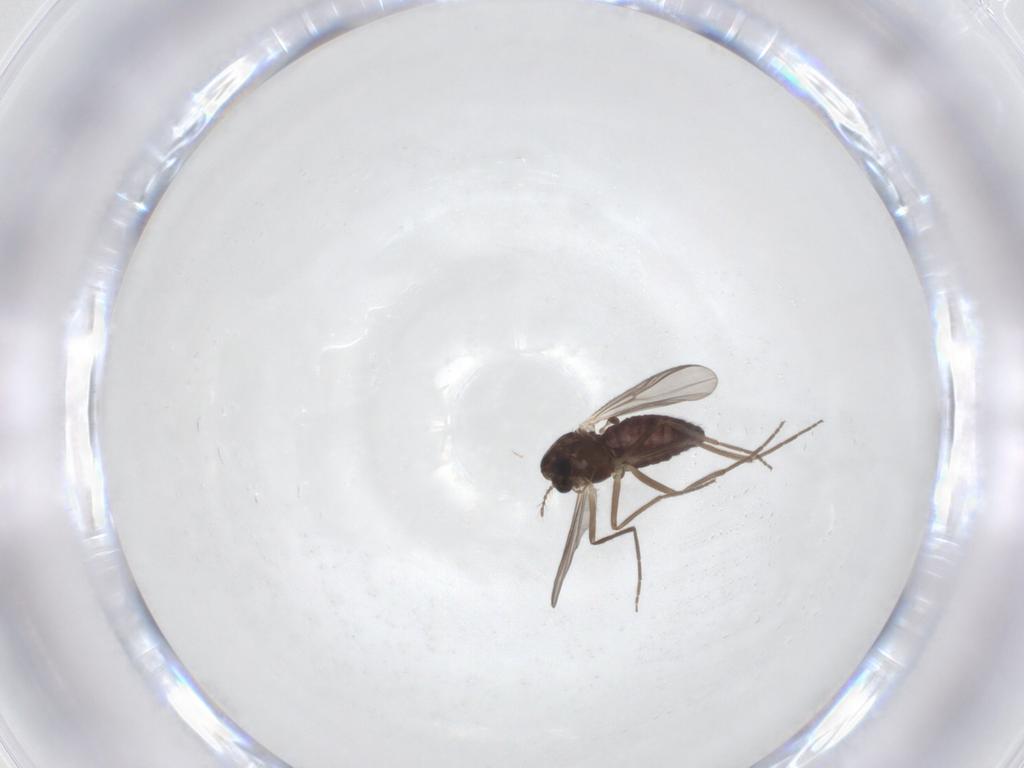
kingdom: Animalia
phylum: Arthropoda
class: Insecta
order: Diptera
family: Chironomidae
